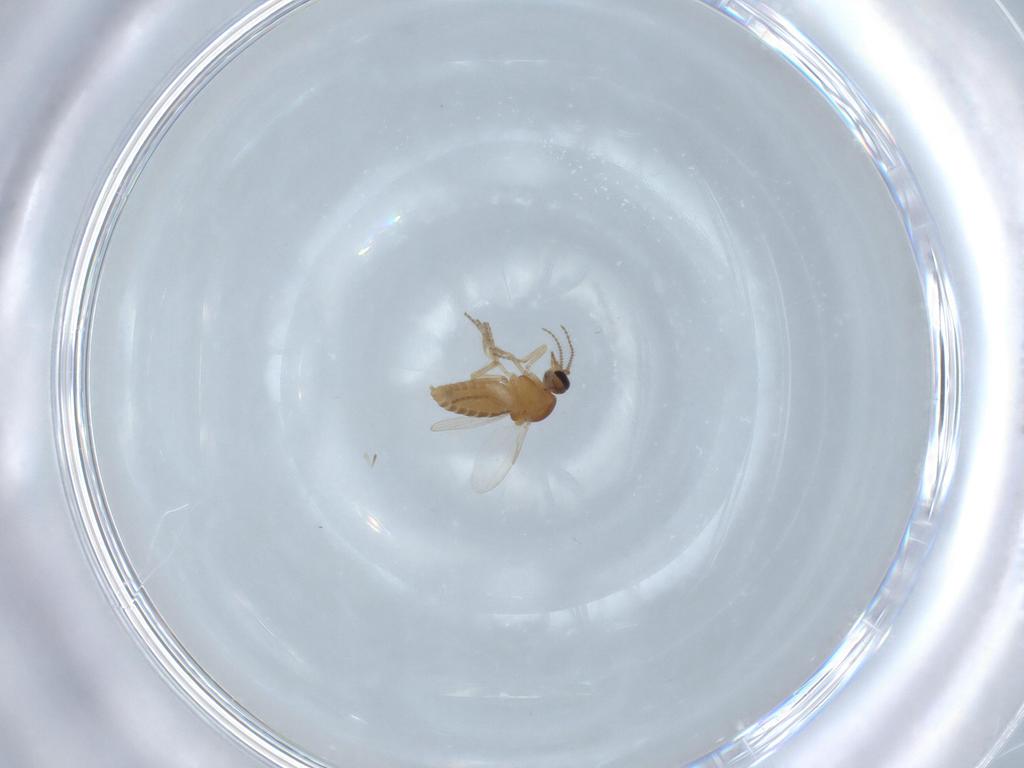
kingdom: Animalia
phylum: Arthropoda
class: Insecta
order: Diptera
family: Ceratopogonidae
